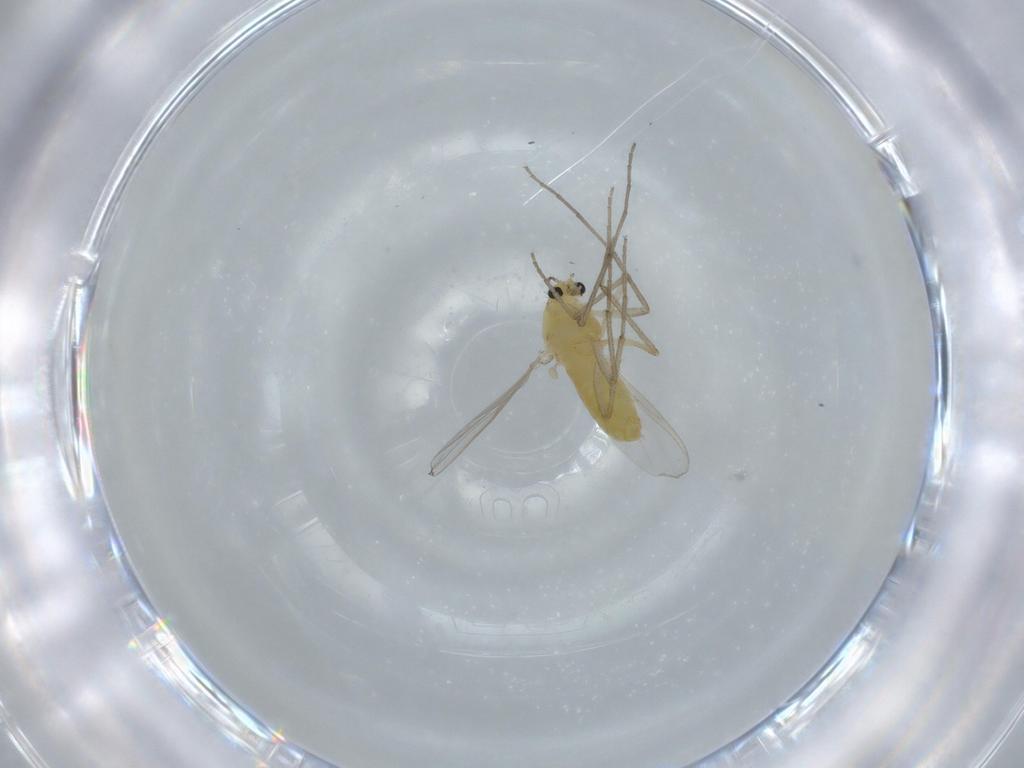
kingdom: Animalia
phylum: Arthropoda
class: Insecta
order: Diptera
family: Chironomidae
